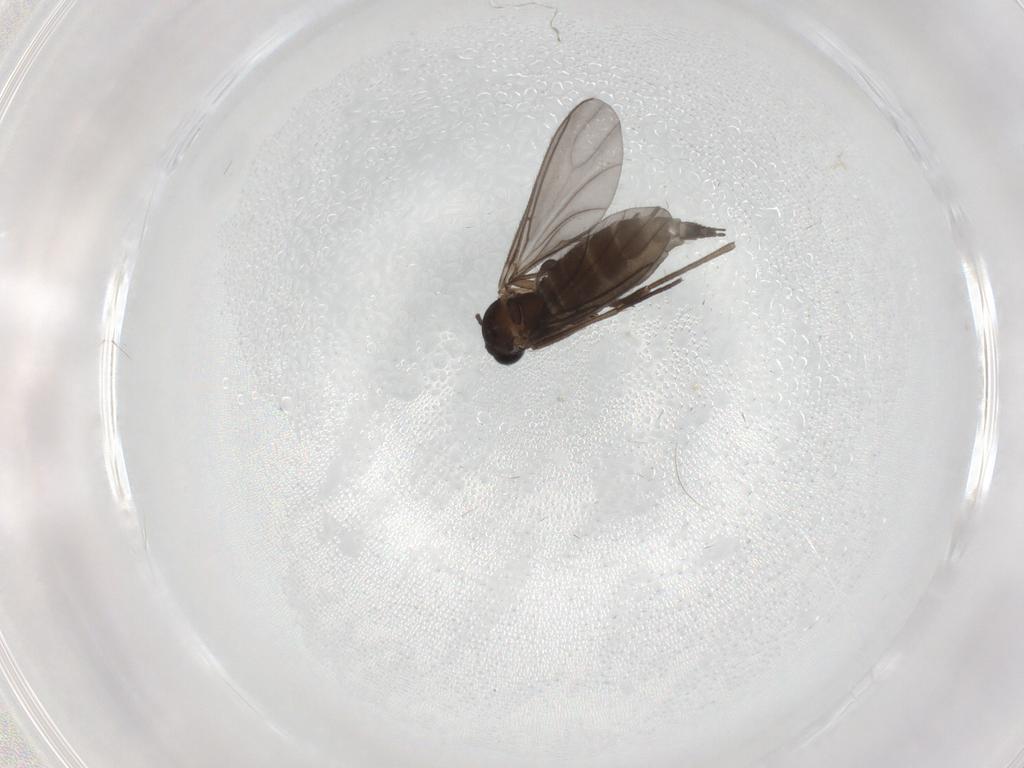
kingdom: Animalia
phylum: Arthropoda
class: Insecta
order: Diptera
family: Sciaridae
